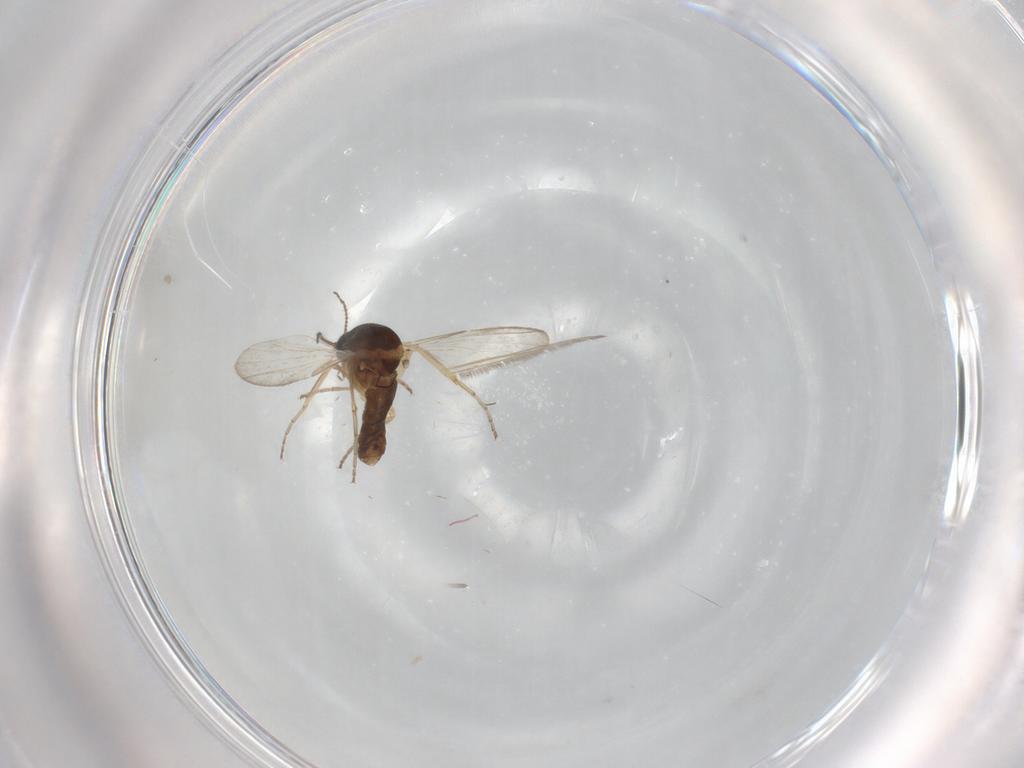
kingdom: Animalia
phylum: Arthropoda
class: Insecta
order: Diptera
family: Ceratopogonidae
